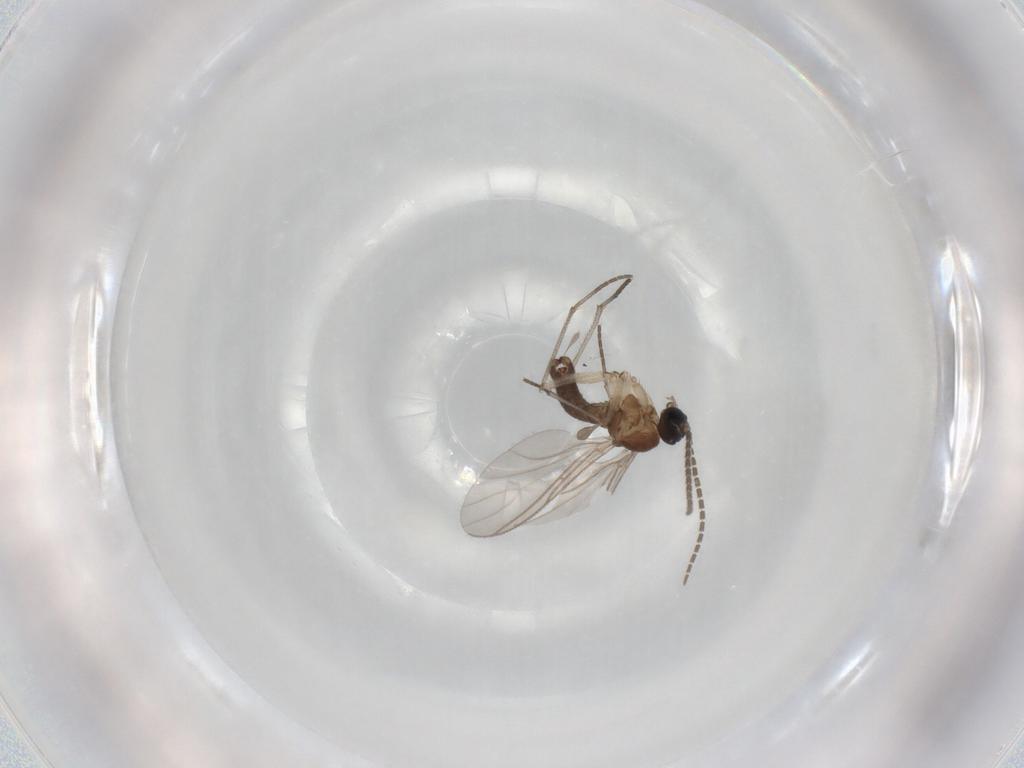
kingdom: Animalia
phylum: Arthropoda
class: Insecta
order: Diptera
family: Sciaridae
